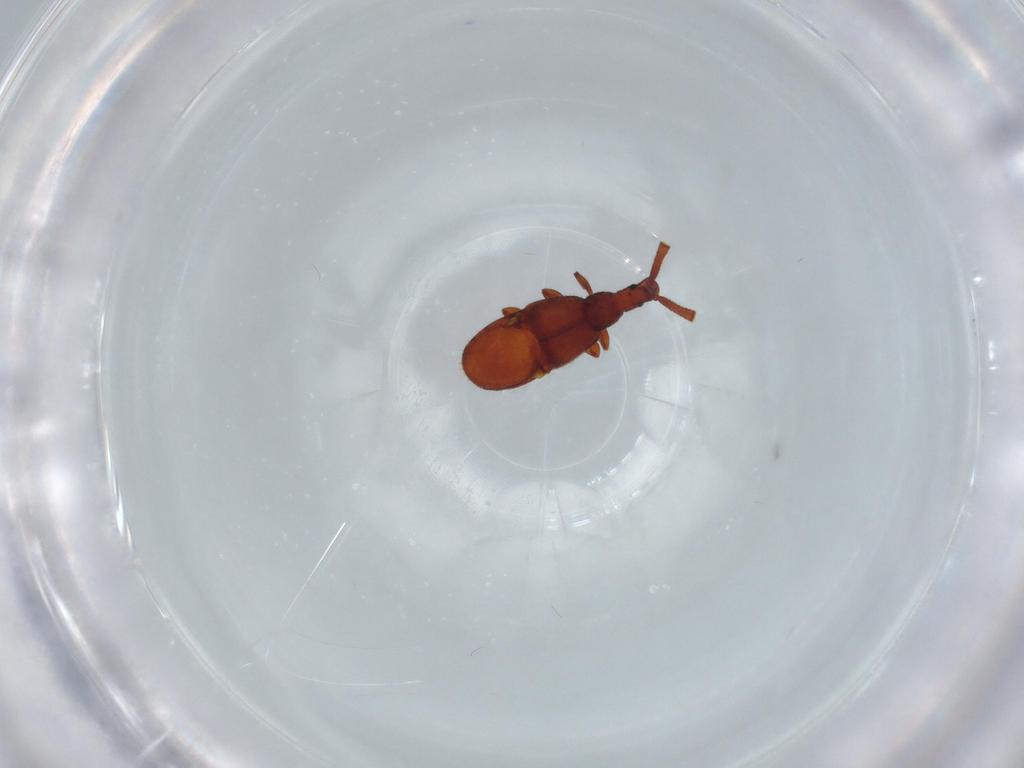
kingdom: Animalia
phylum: Arthropoda
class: Insecta
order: Coleoptera
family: Staphylinidae
